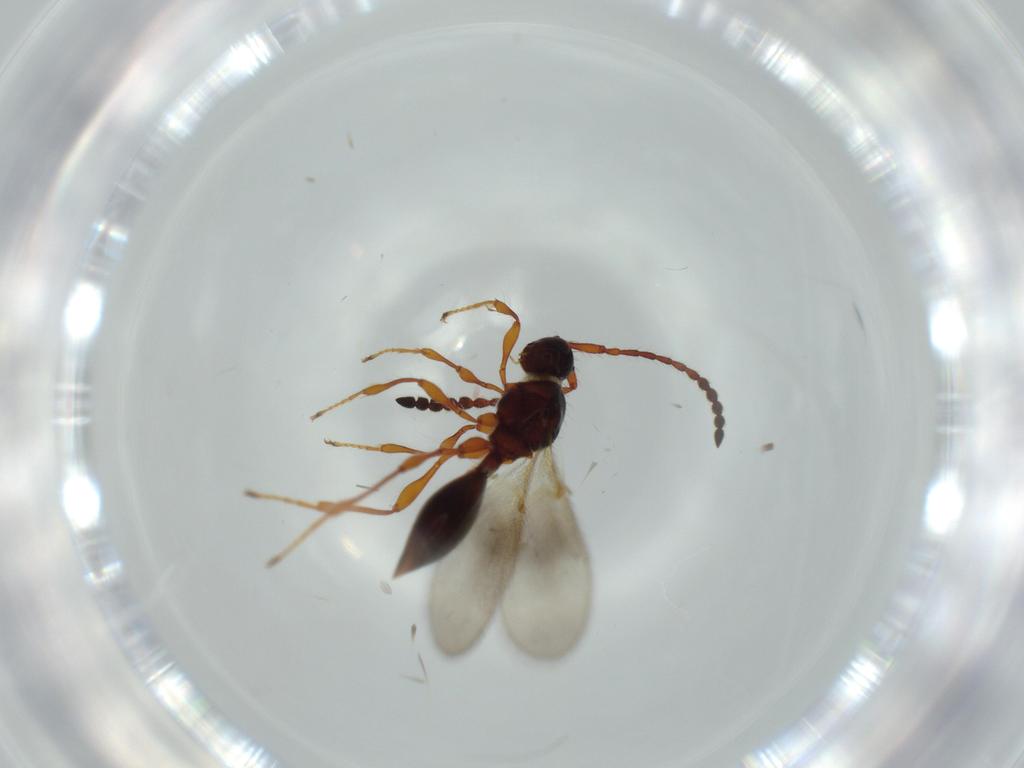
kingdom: Animalia
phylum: Arthropoda
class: Insecta
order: Hymenoptera
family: Diapriidae
